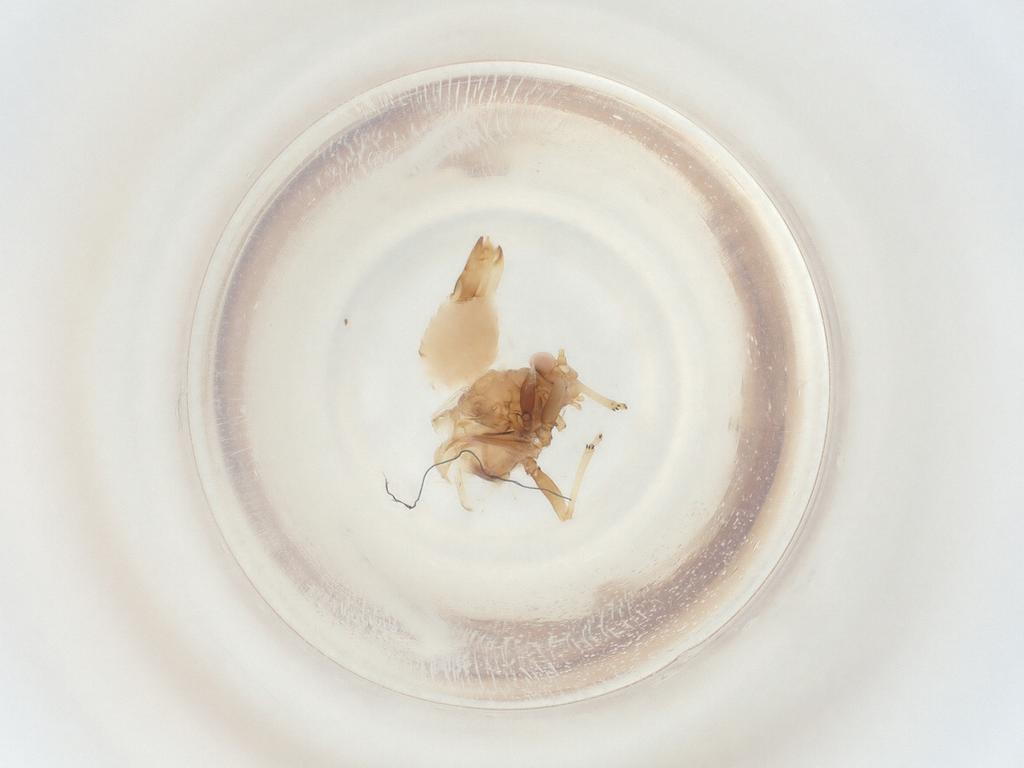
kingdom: Animalia
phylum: Arthropoda
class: Insecta
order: Hemiptera
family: Psyllidae
